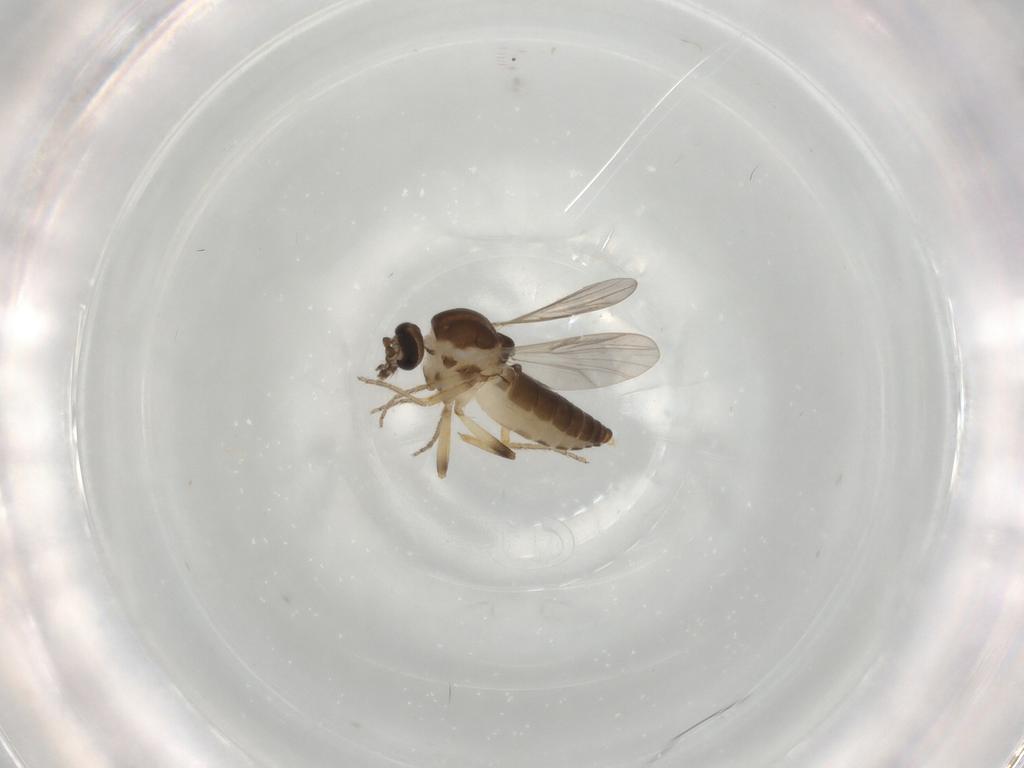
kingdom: Animalia
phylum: Arthropoda
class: Insecta
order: Diptera
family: Ceratopogonidae
